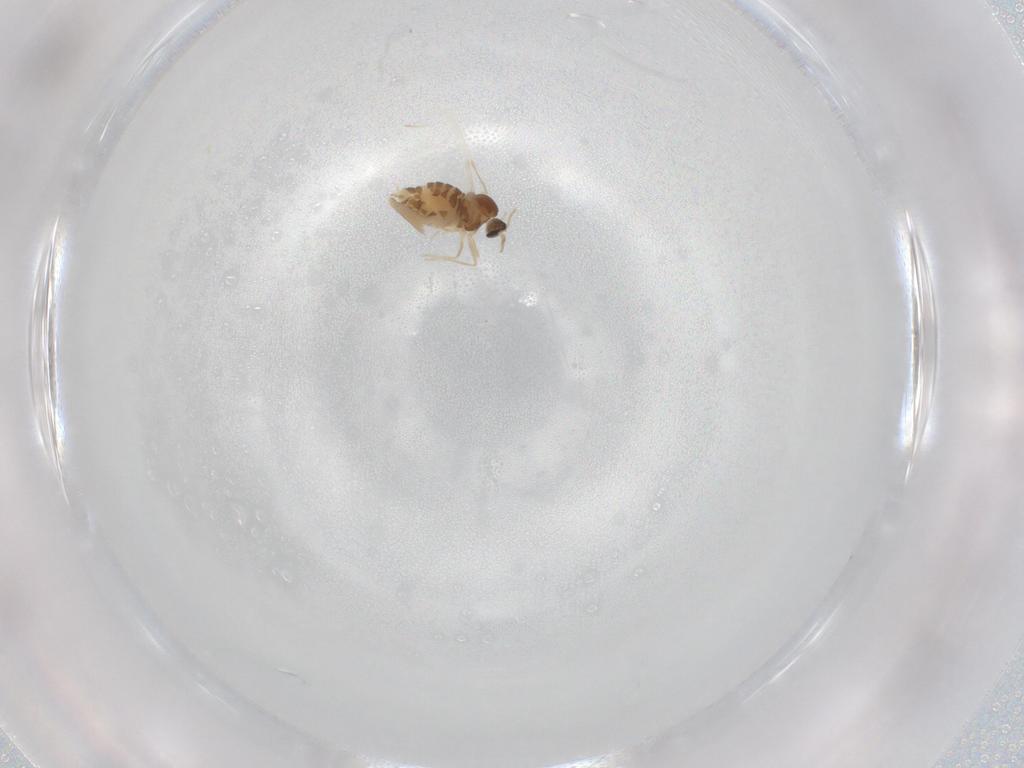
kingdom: Animalia
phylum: Arthropoda
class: Insecta
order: Diptera
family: Cecidomyiidae
